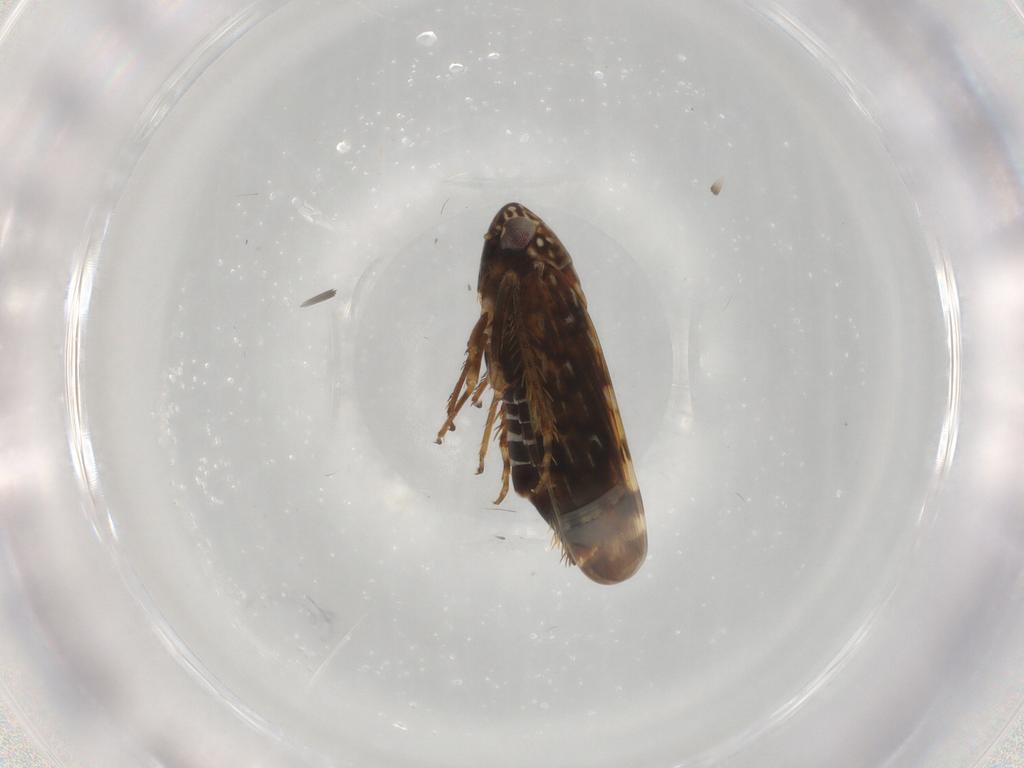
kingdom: Animalia
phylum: Arthropoda
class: Insecta
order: Hemiptera
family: Cicadellidae
